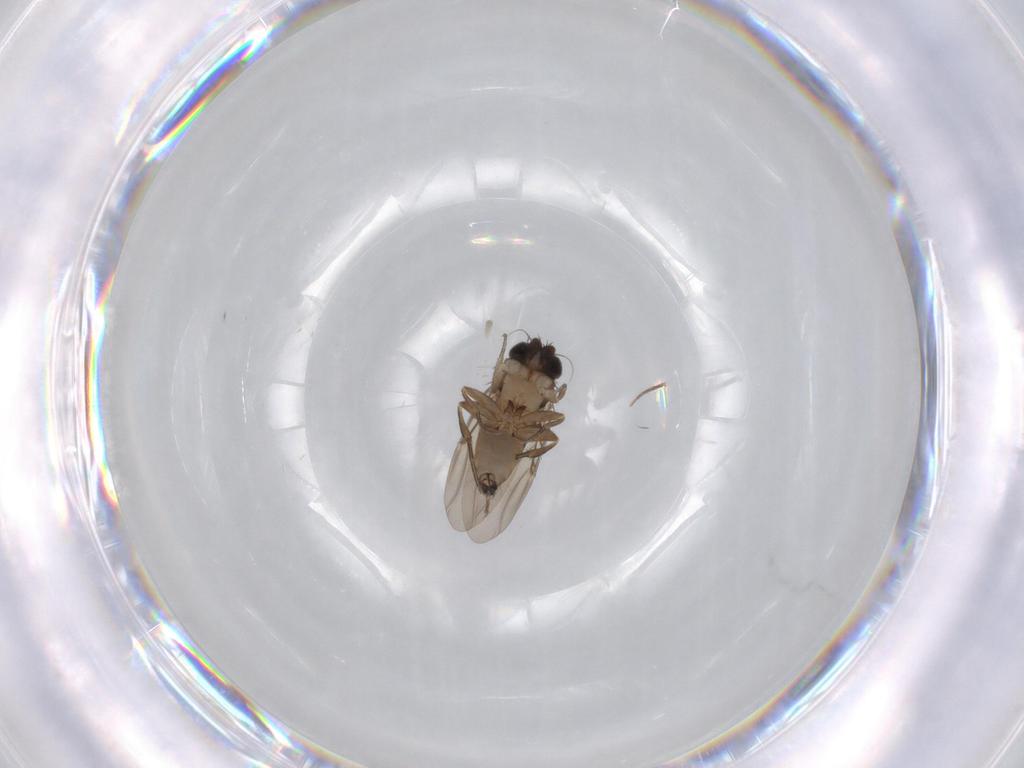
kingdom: Animalia
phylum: Arthropoda
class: Insecta
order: Diptera
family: Phoridae
